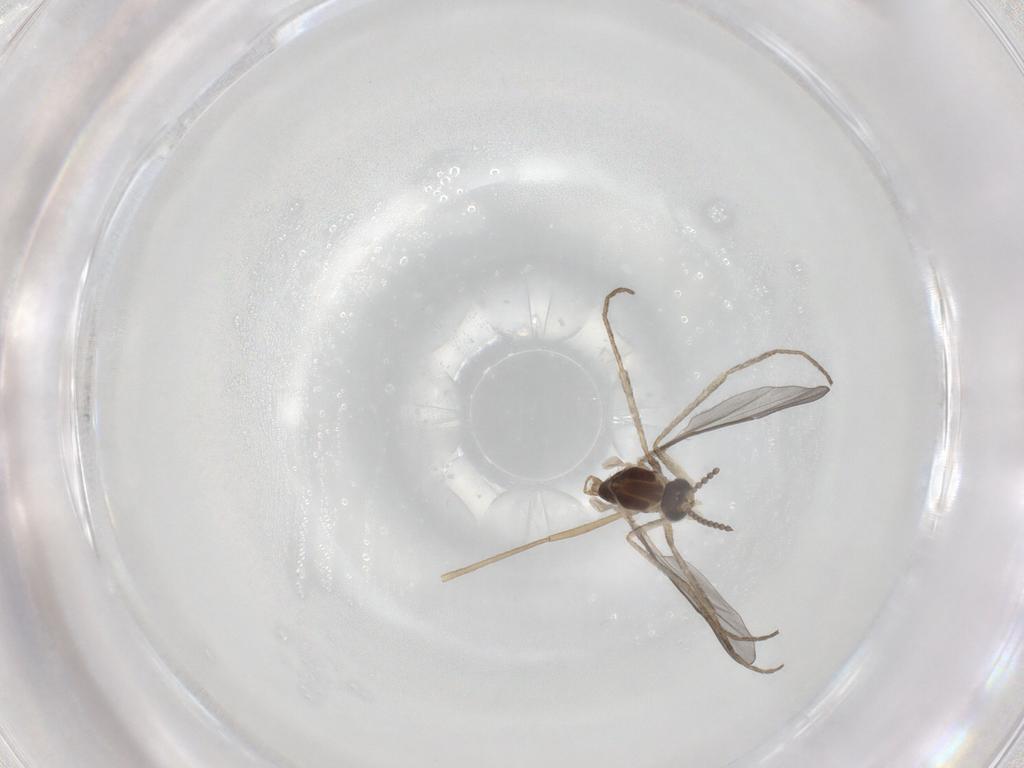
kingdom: Animalia
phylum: Arthropoda
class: Insecta
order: Diptera
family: Cecidomyiidae
